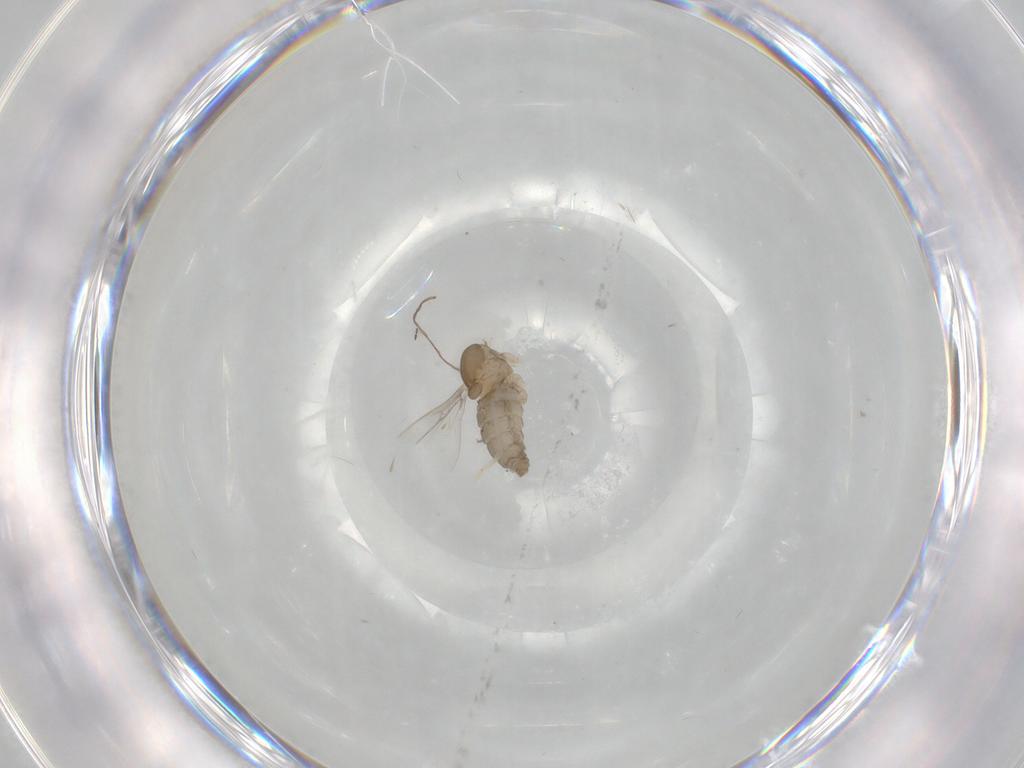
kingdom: Animalia
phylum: Arthropoda
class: Insecta
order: Diptera
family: Cecidomyiidae
